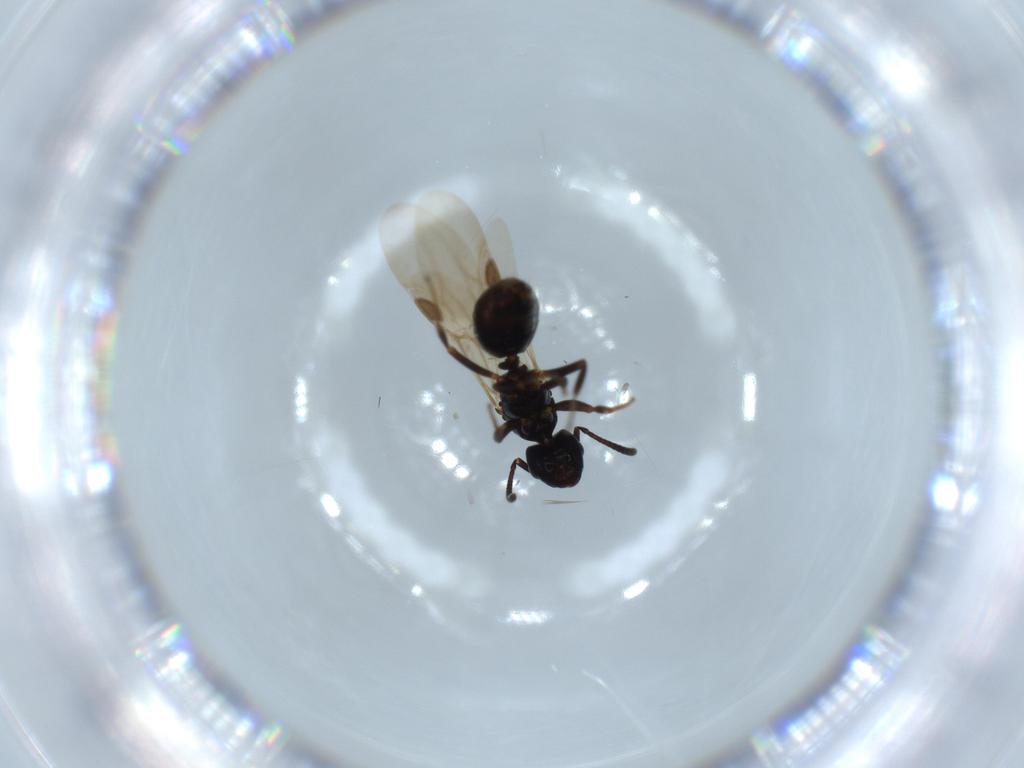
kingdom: Animalia
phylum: Arthropoda
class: Insecta
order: Hymenoptera
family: Formicidae
